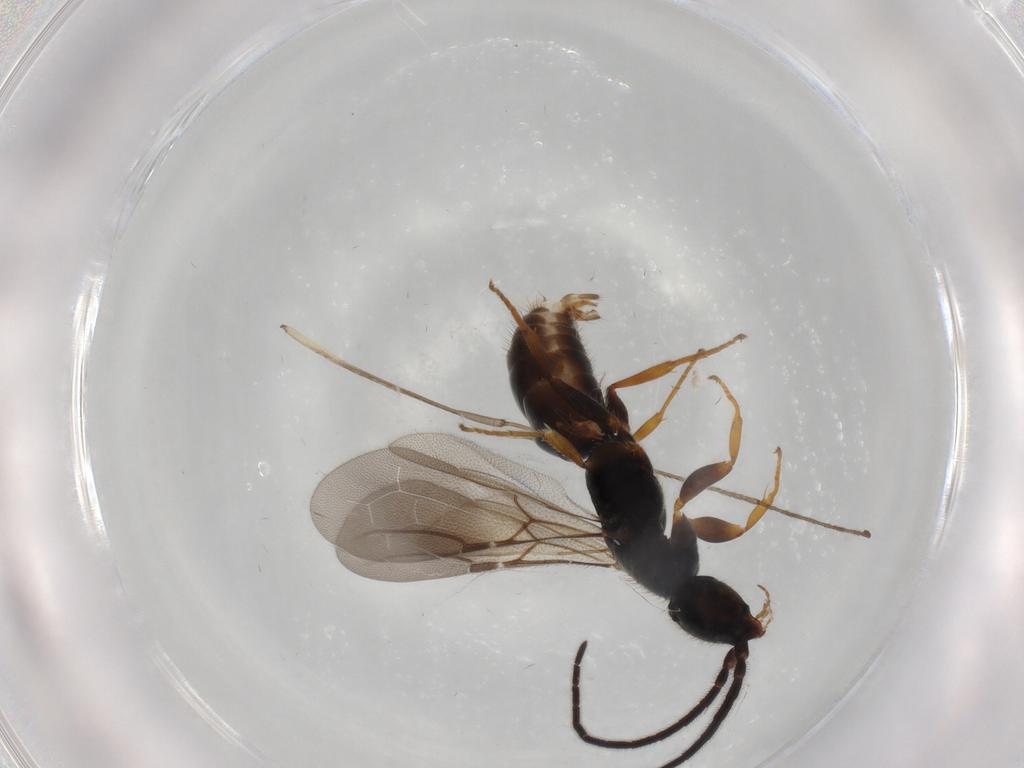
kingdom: Animalia
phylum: Arthropoda
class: Insecta
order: Hymenoptera
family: Bethylidae
